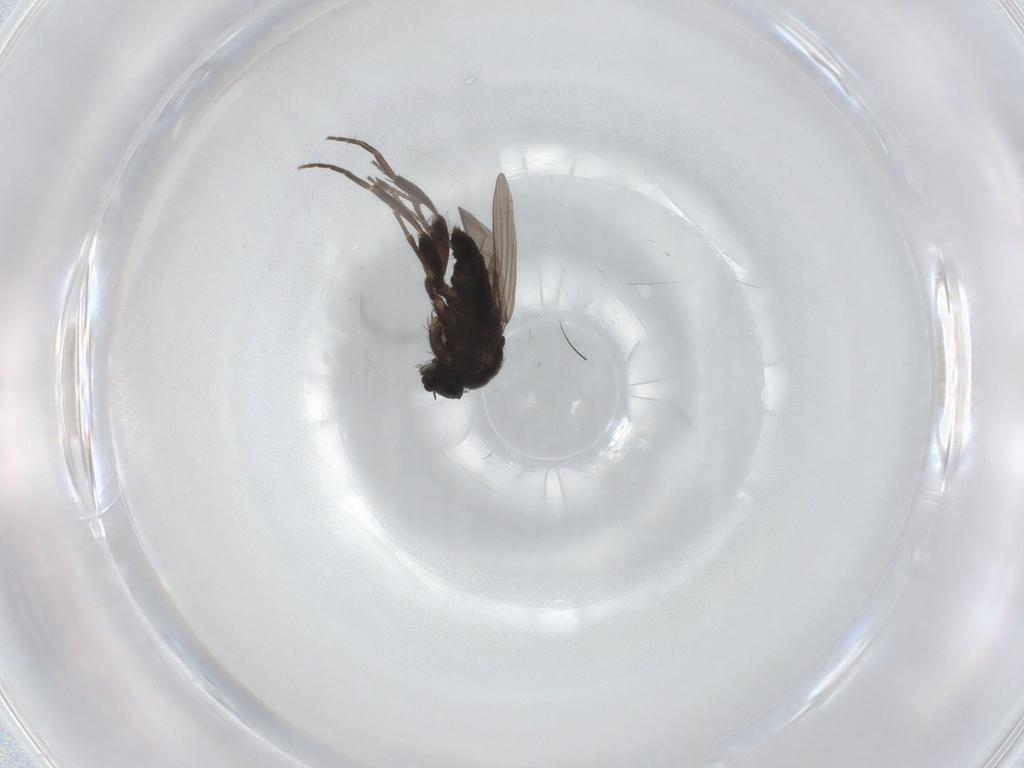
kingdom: Animalia
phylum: Arthropoda
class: Insecta
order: Diptera
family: Phoridae
